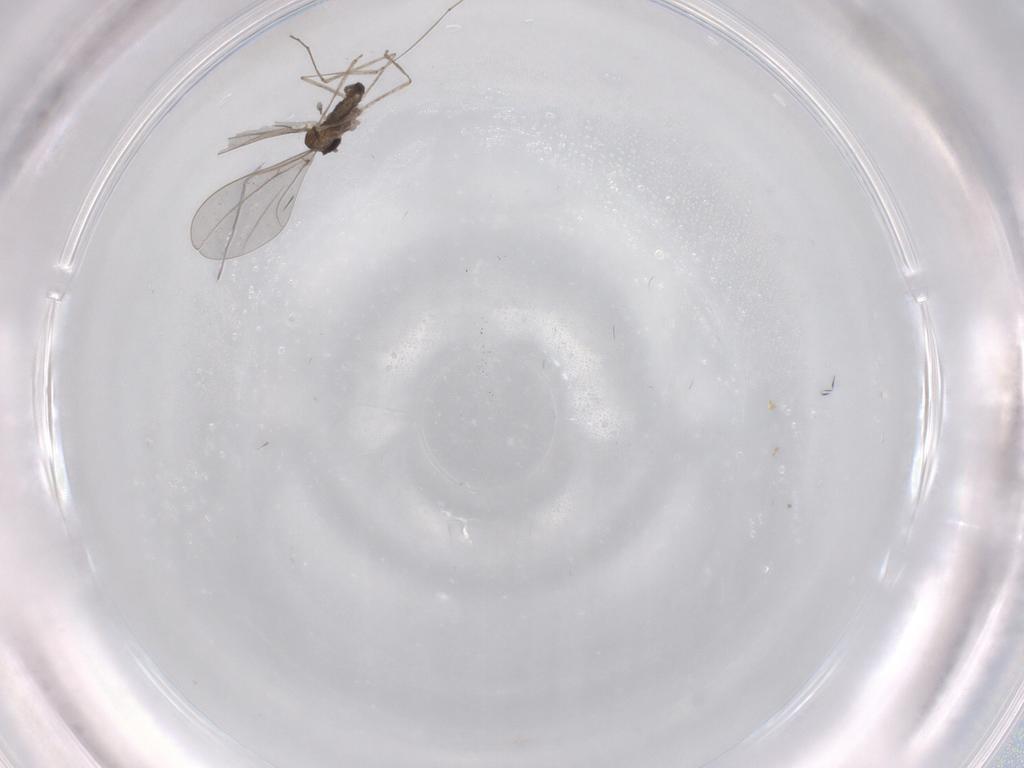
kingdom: Animalia
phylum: Arthropoda
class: Insecta
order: Diptera
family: Cecidomyiidae
